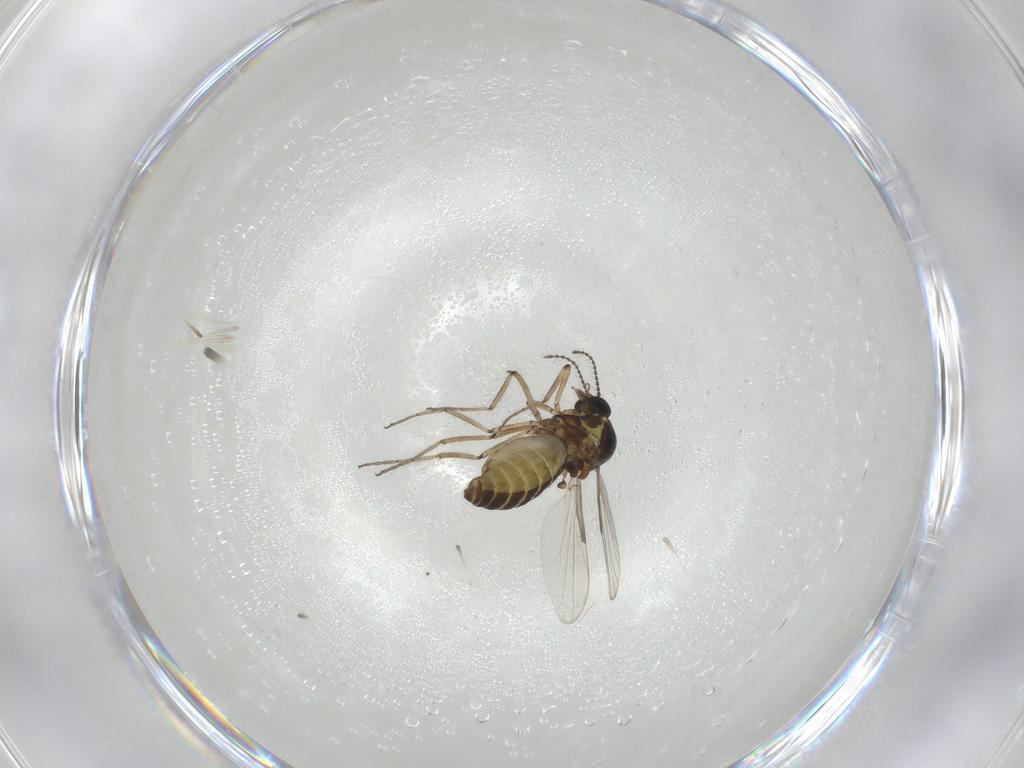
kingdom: Animalia
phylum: Arthropoda
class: Insecta
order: Diptera
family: Ceratopogonidae
